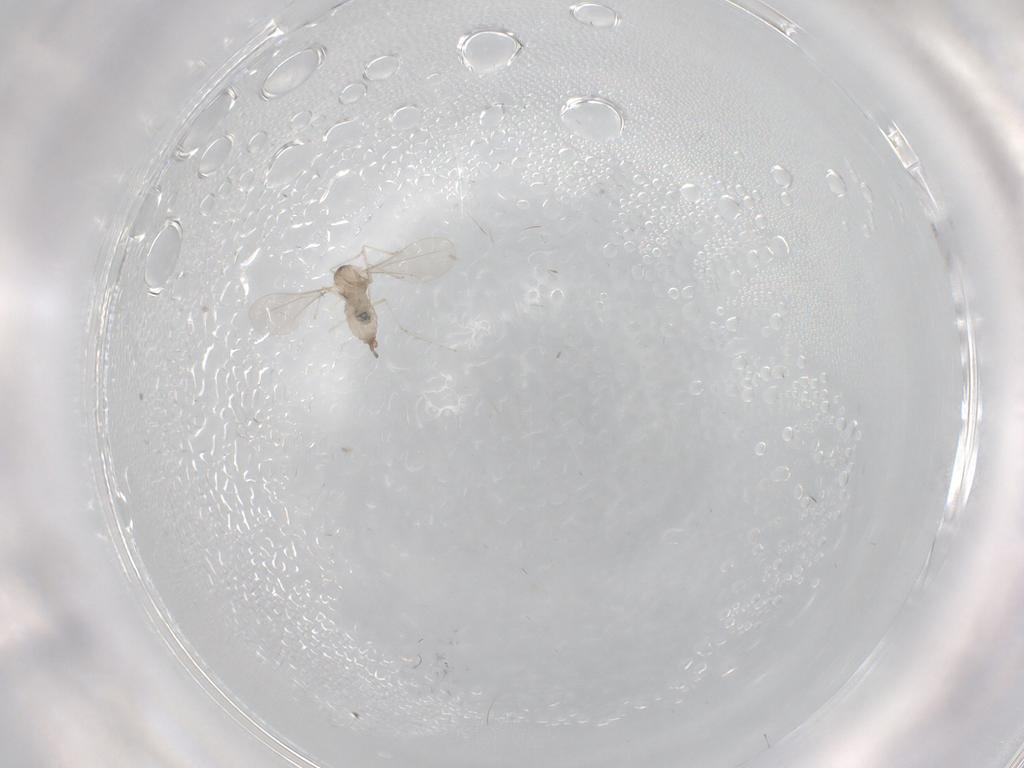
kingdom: Animalia
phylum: Arthropoda
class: Insecta
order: Diptera
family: Cecidomyiidae
